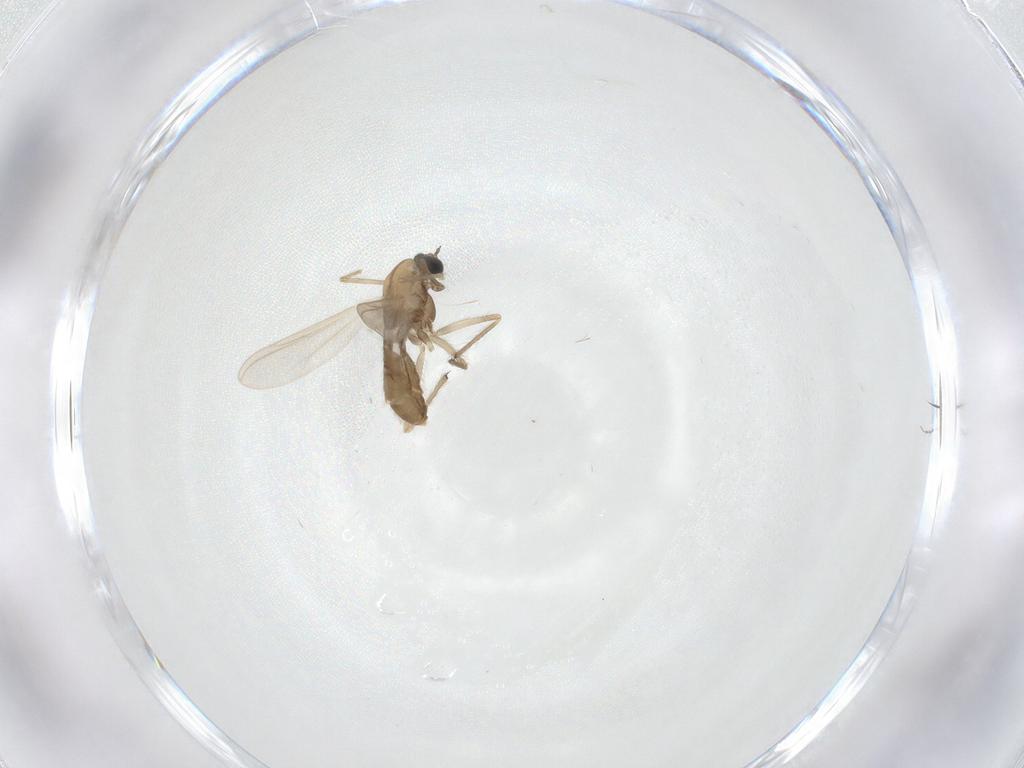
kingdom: Animalia
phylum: Arthropoda
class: Insecta
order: Diptera
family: Chironomidae
